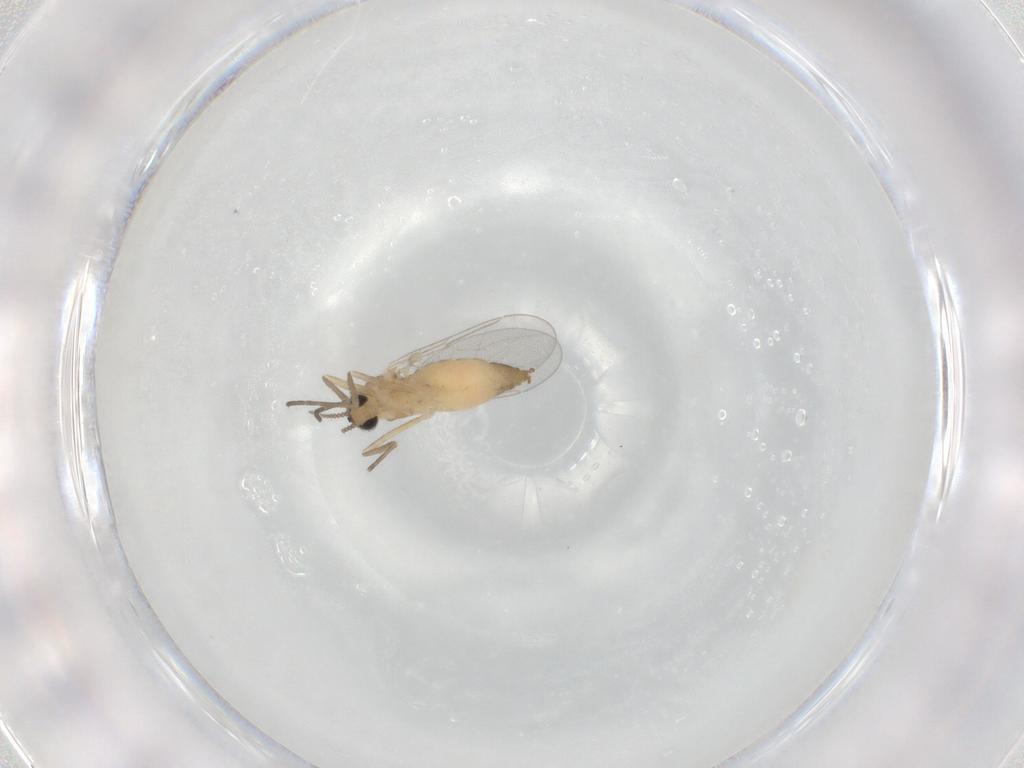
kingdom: Animalia
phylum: Arthropoda
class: Insecta
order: Diptera
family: Cecidomyiidae
